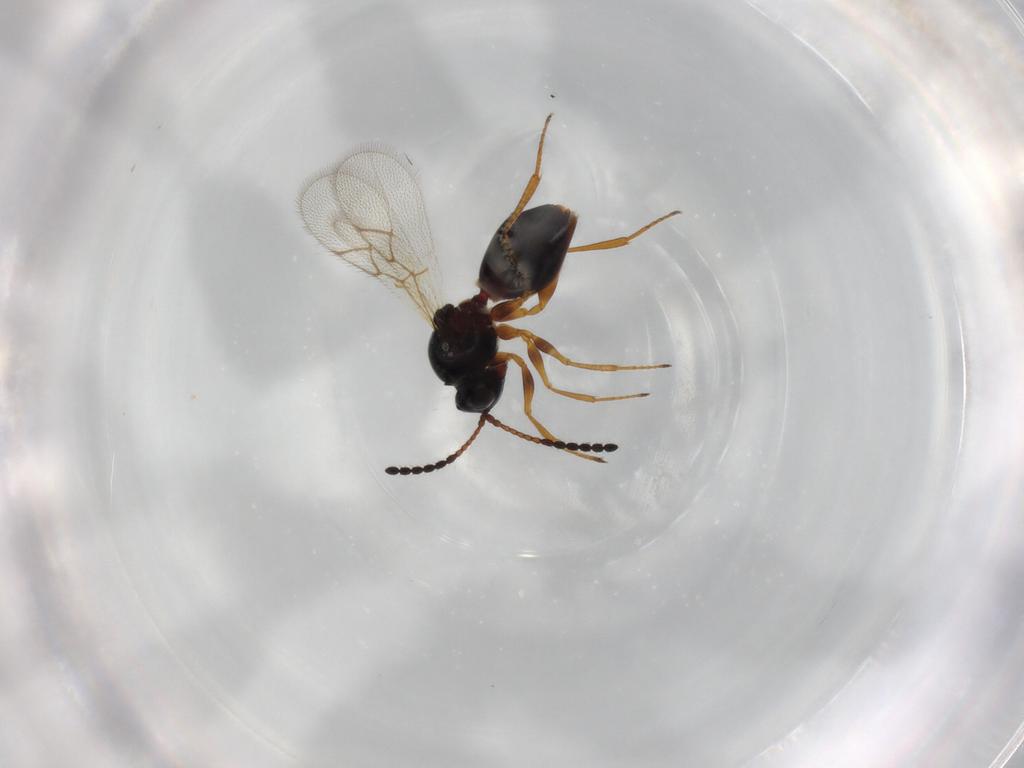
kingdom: Animalia
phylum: Arthropoda
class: Insecta
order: Hymenoptera
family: Figitidae
